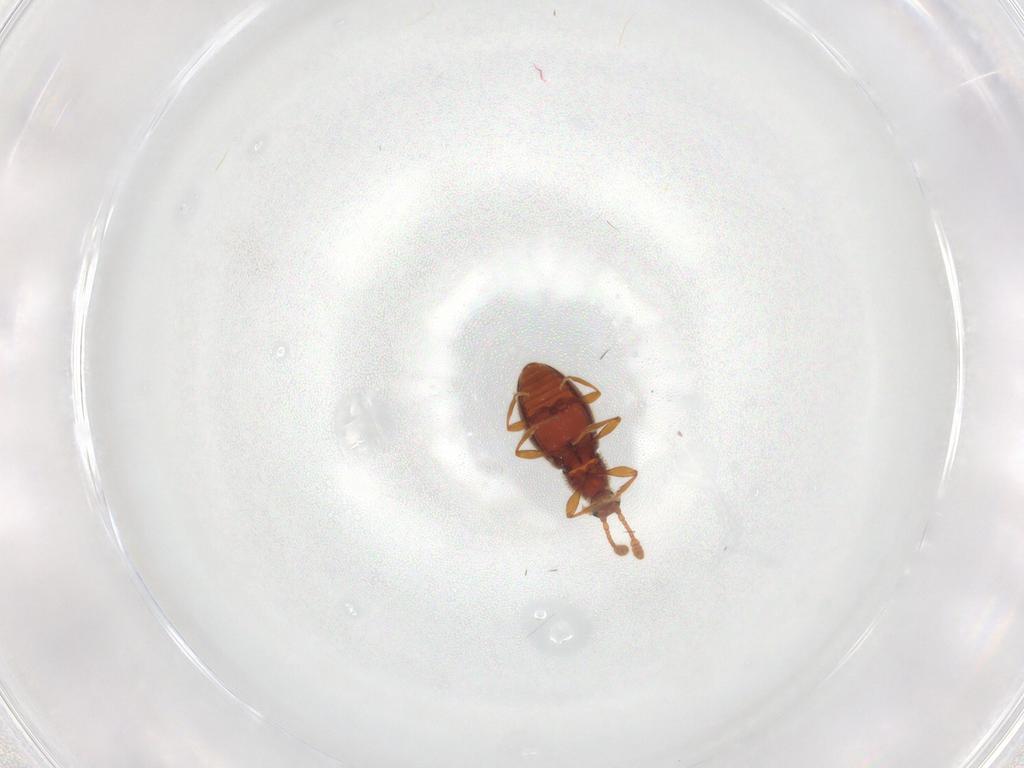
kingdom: Animalia
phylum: Arthropoda
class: Insecta
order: Coleoptera
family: Staphylinidae
